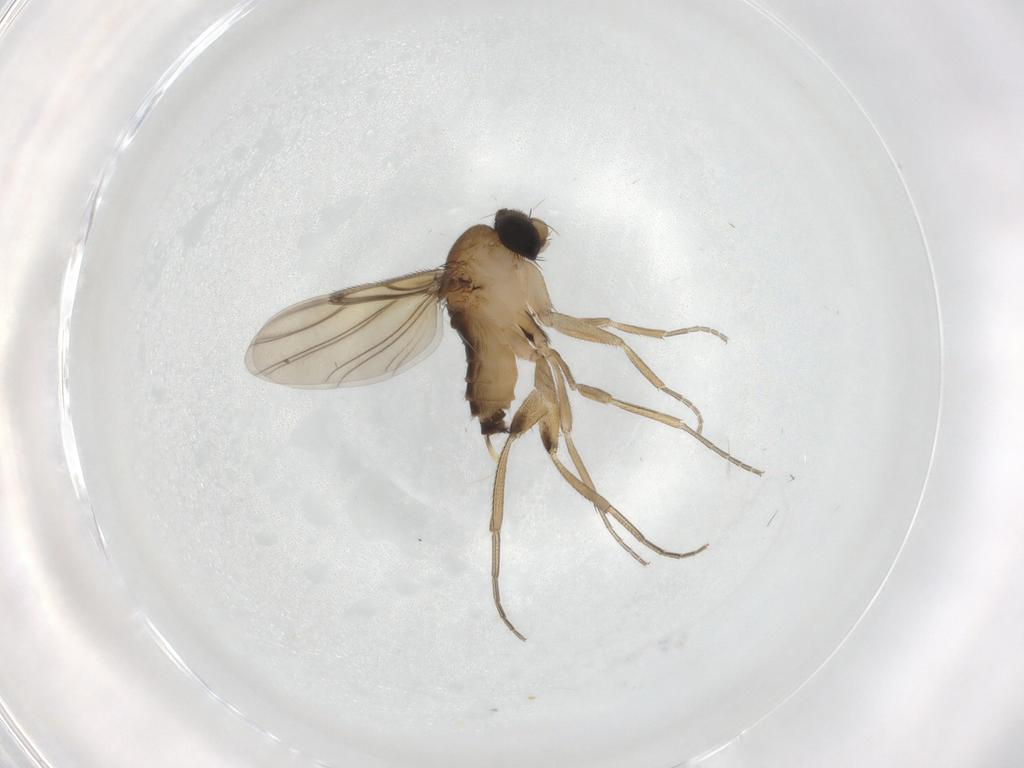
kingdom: Animalia
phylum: Arthropoda
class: Insecta
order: Diptera
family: Phoridae
